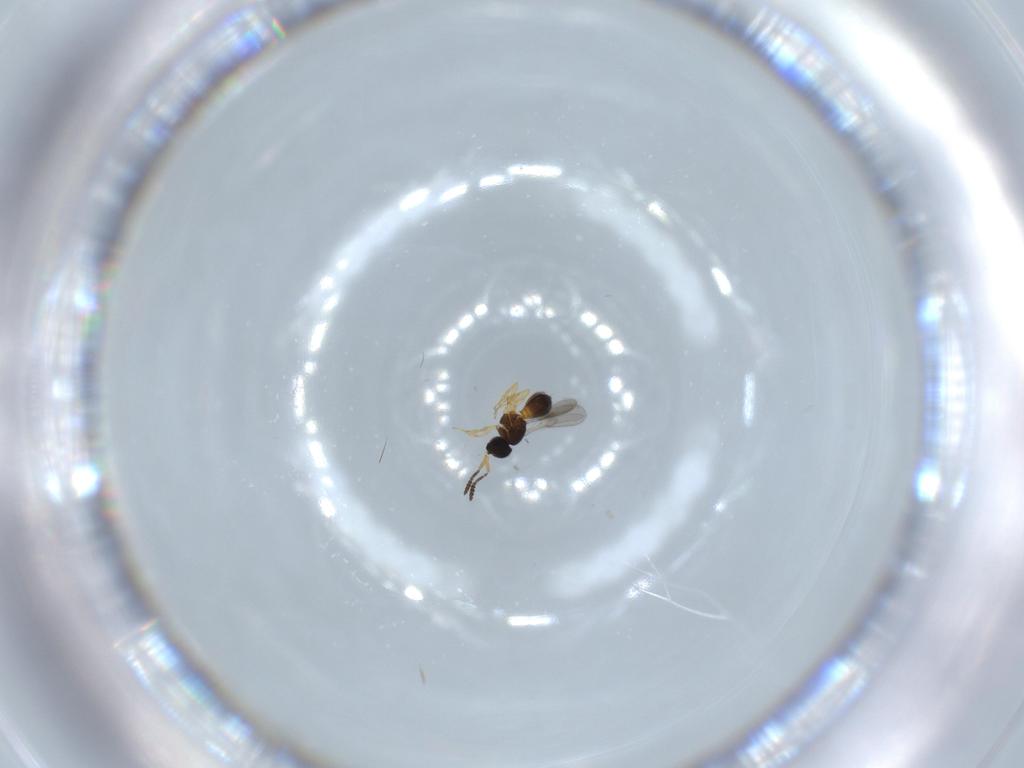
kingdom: Animalia
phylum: Arthropoda
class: Insecta
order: Hymenoptera
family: Scelionidae
